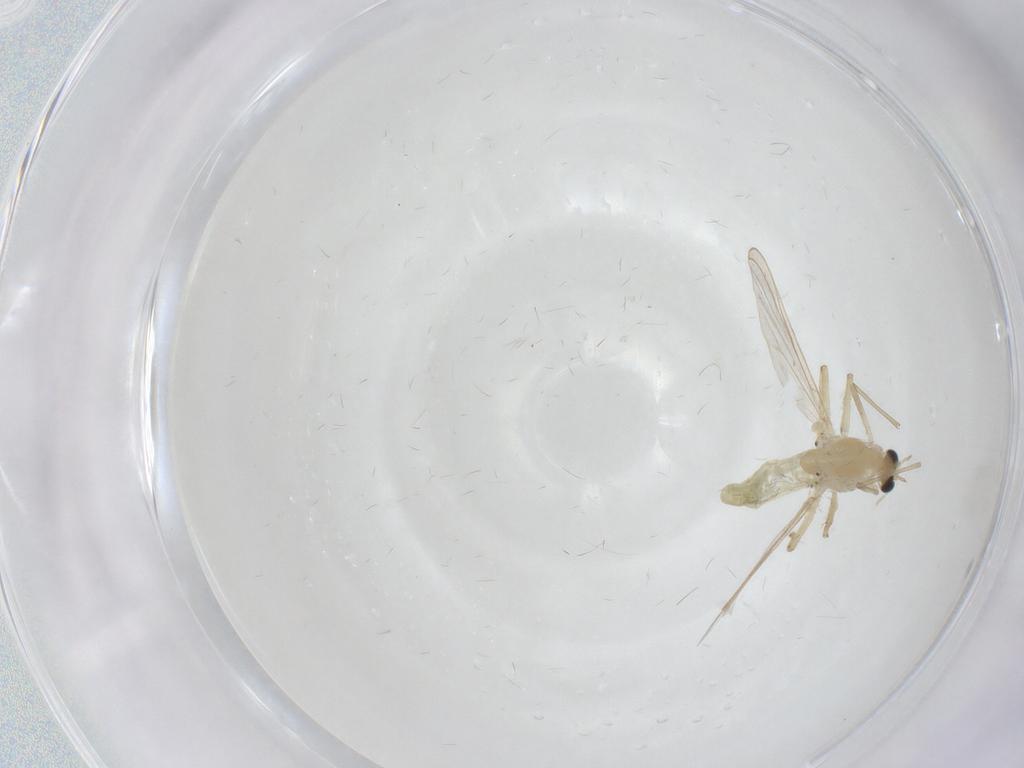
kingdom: Animalia
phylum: Arthropoda
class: Insecta
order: Diptera
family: Chironomidae
